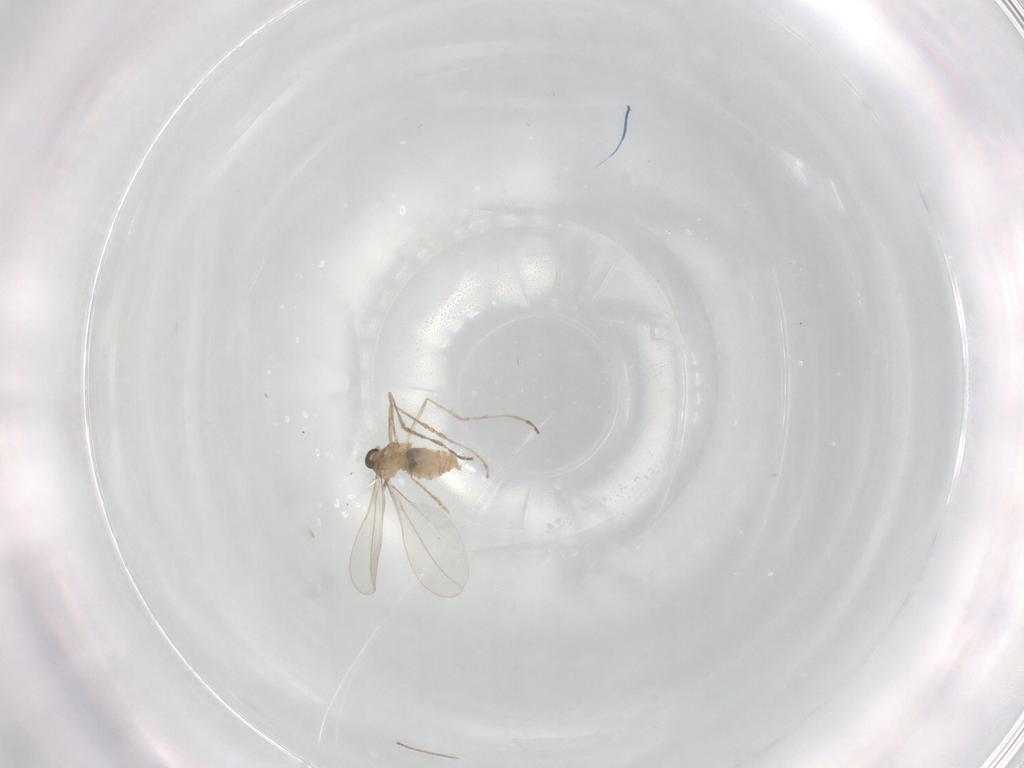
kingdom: Animalia
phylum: Arthropoda
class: Insecta
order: Diptera
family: Cecidomyiidae
